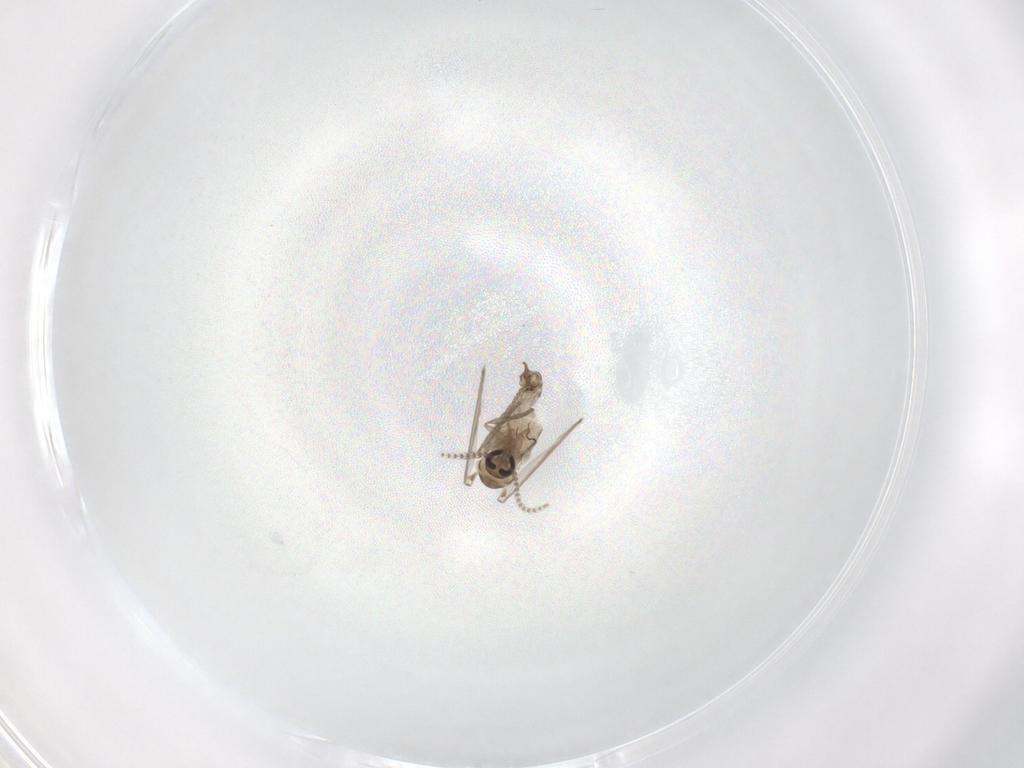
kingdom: Animalia
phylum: Arthropoda
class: Insecta
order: Diptera
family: Psychodidae
